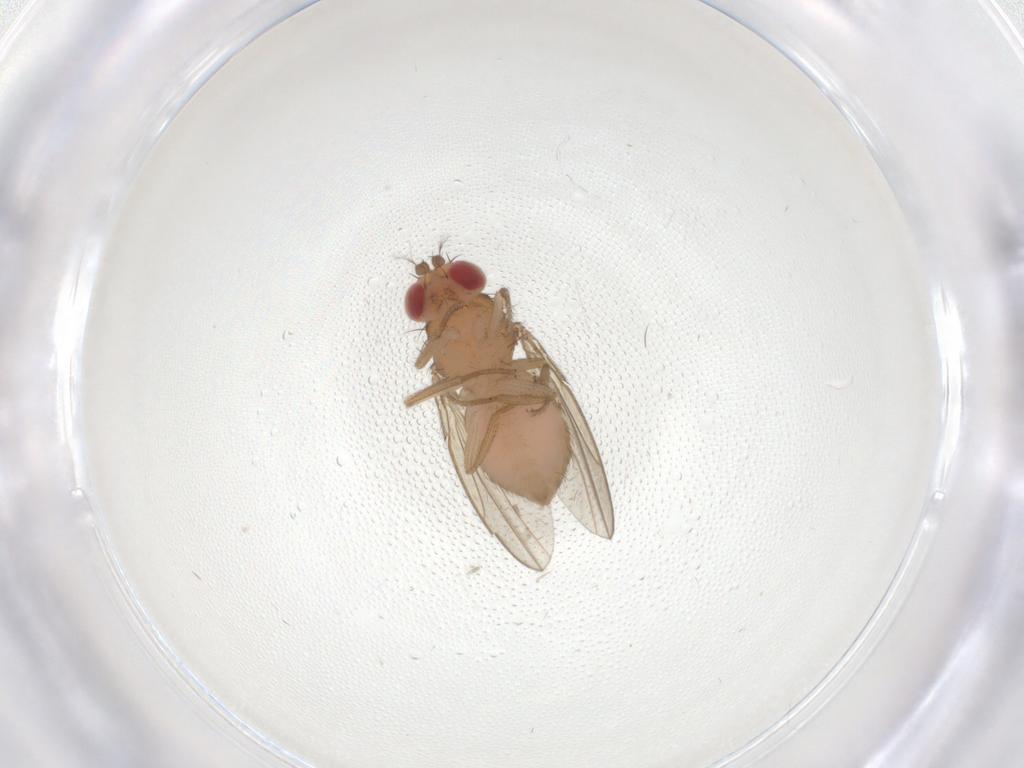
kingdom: Animalia
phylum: Arthropoda
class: Insecta
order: Diptera
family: Drosophilidae
